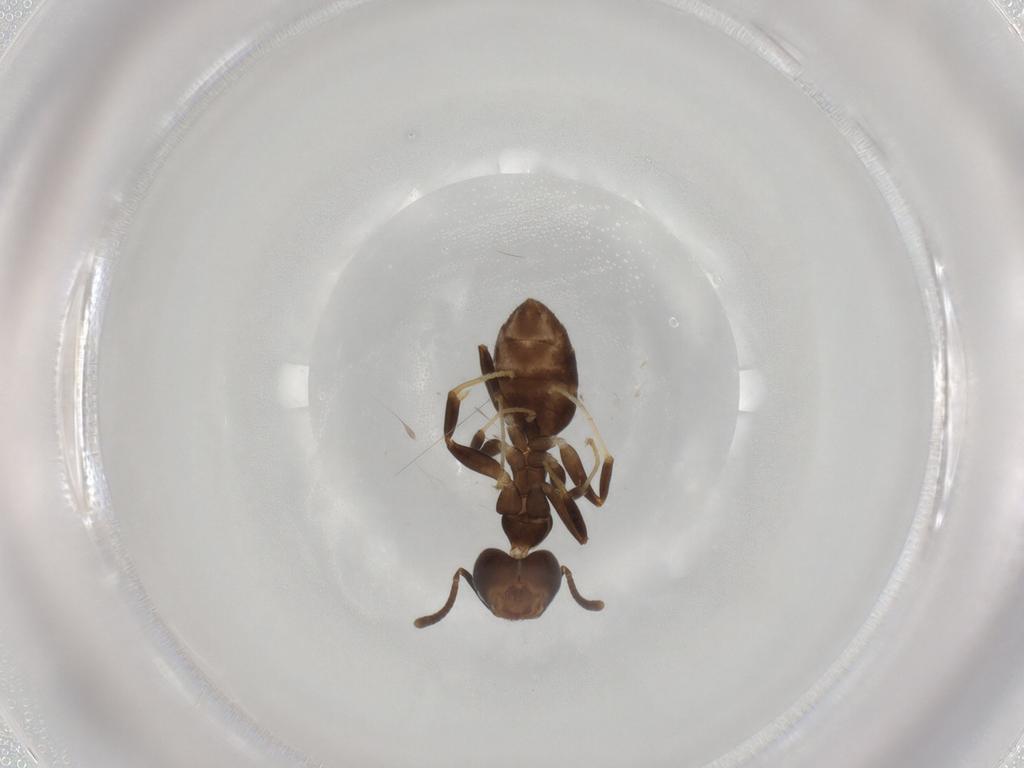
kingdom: Animalia
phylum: Arthropoda
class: Insecta
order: Hymenoptera
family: Formicidae
